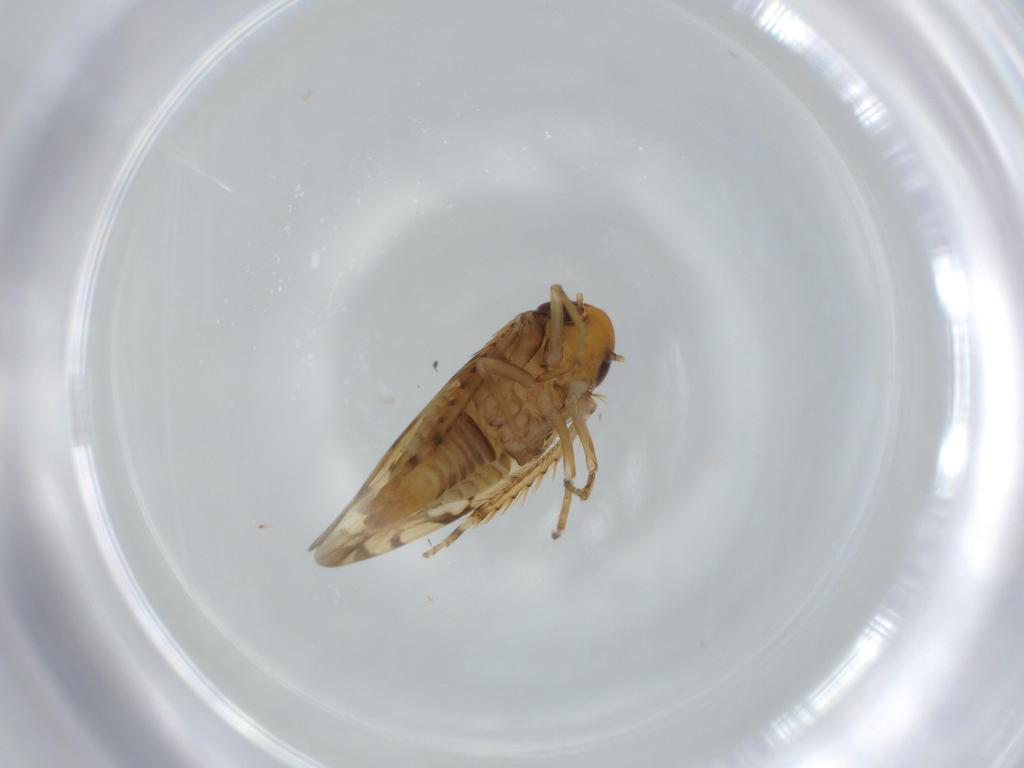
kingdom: Animalia
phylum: Arthropoda
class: Insecta
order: Hemiptera
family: Cicadellidae
